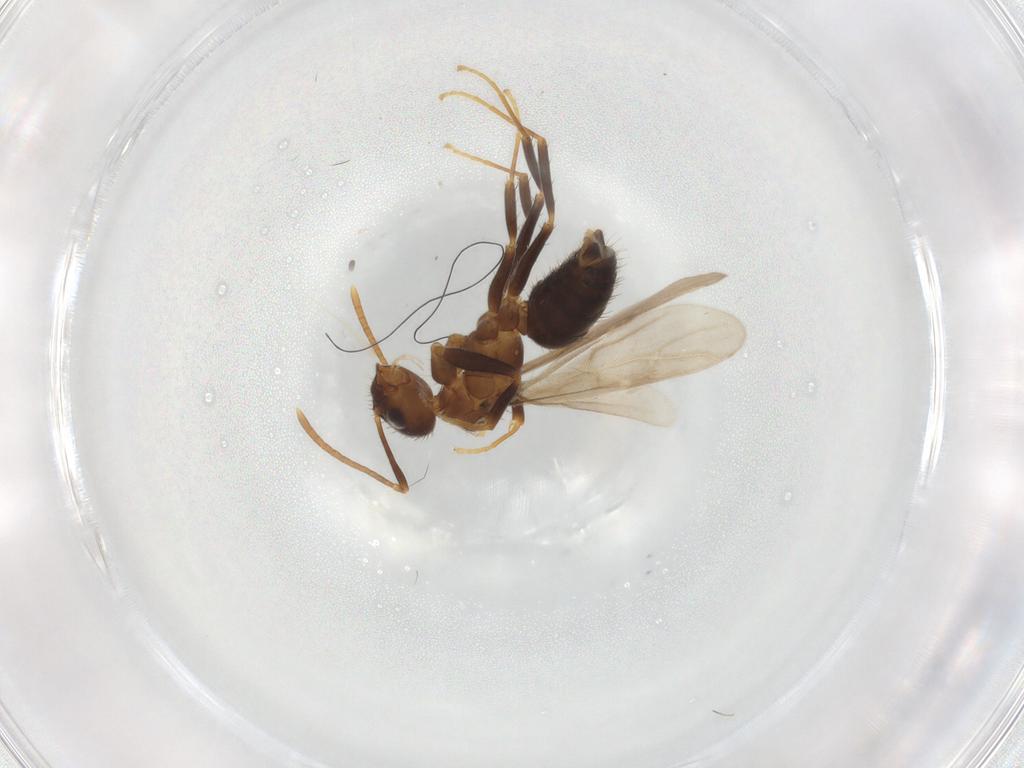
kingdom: Animalia
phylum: Arthropoda
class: Insecta
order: Hymenoptera
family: Formicidae
